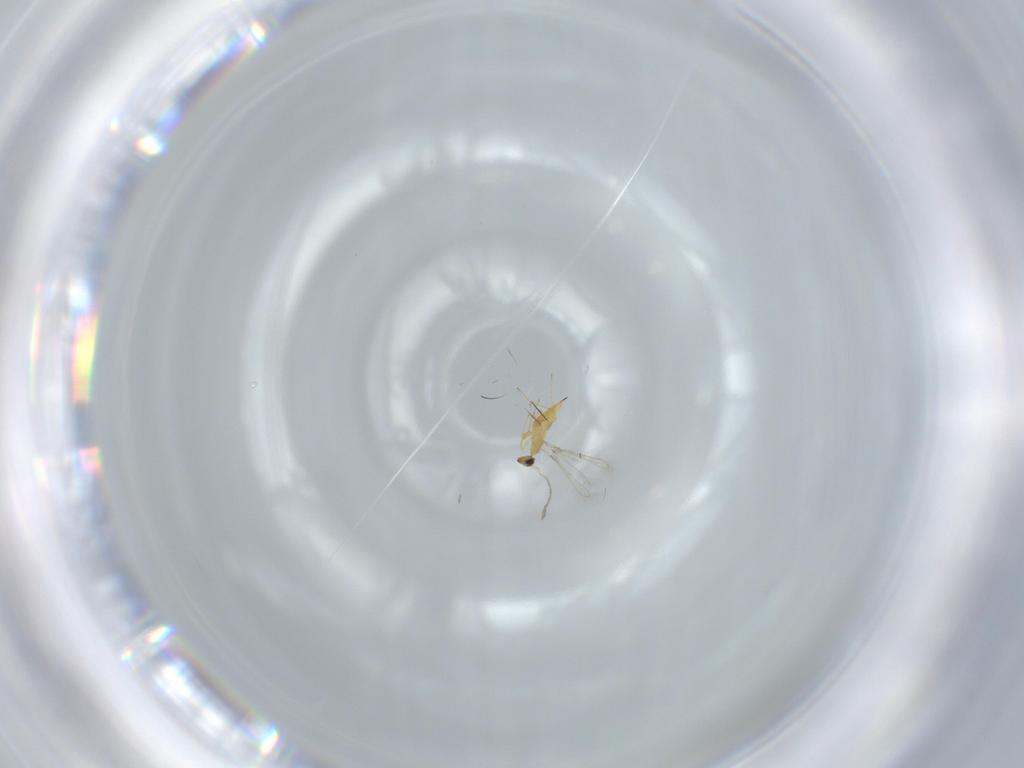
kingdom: Animalia
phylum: Arthropoda
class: Insecta
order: Hymenoptera
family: Mymaridae
